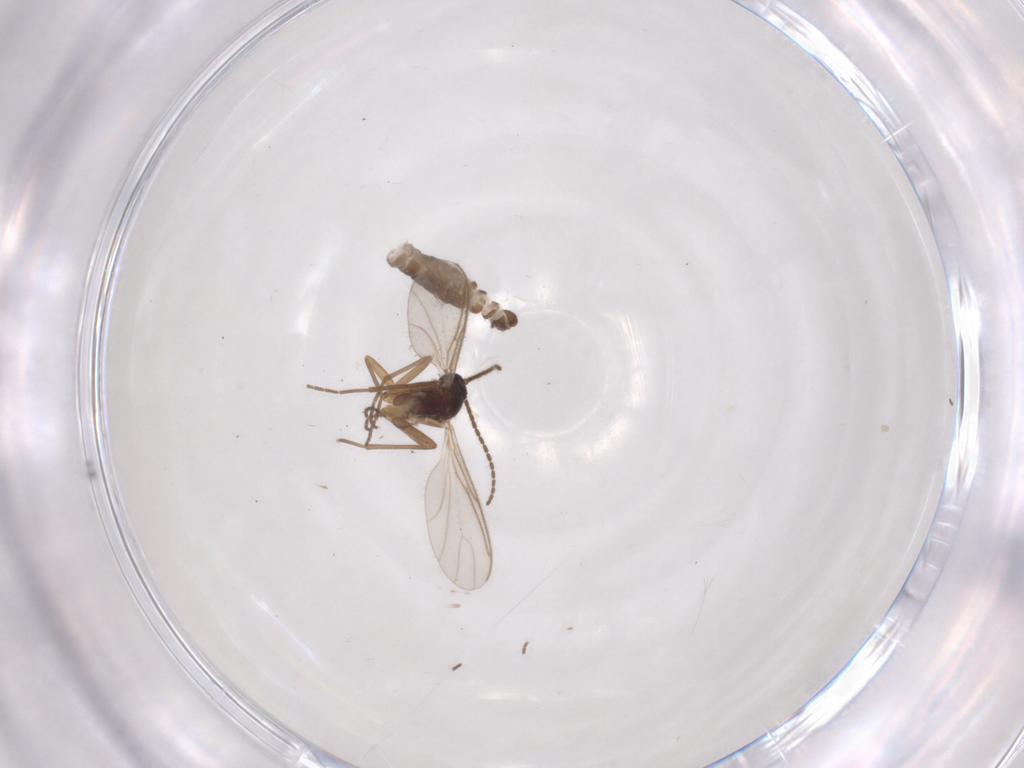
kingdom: Animalia
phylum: Arthropoda
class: Insecta
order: Diptera
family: Sciaridae
